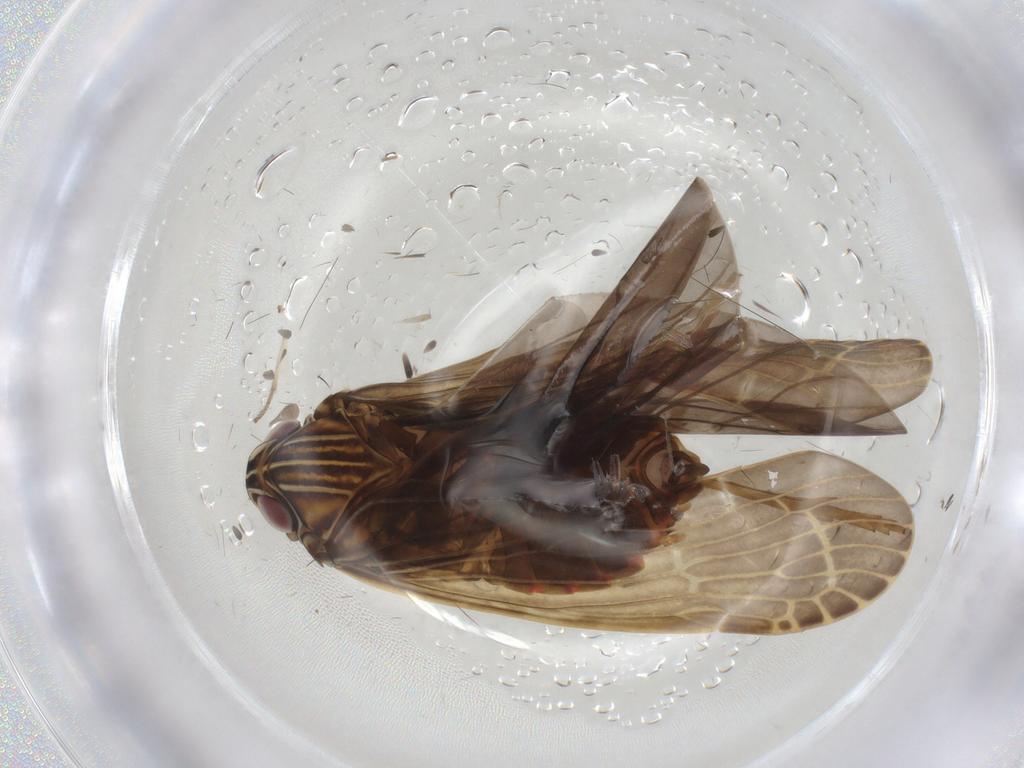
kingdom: Animalia
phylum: Arthropoda
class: Insecta
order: Hemiptera
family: Achilidae
